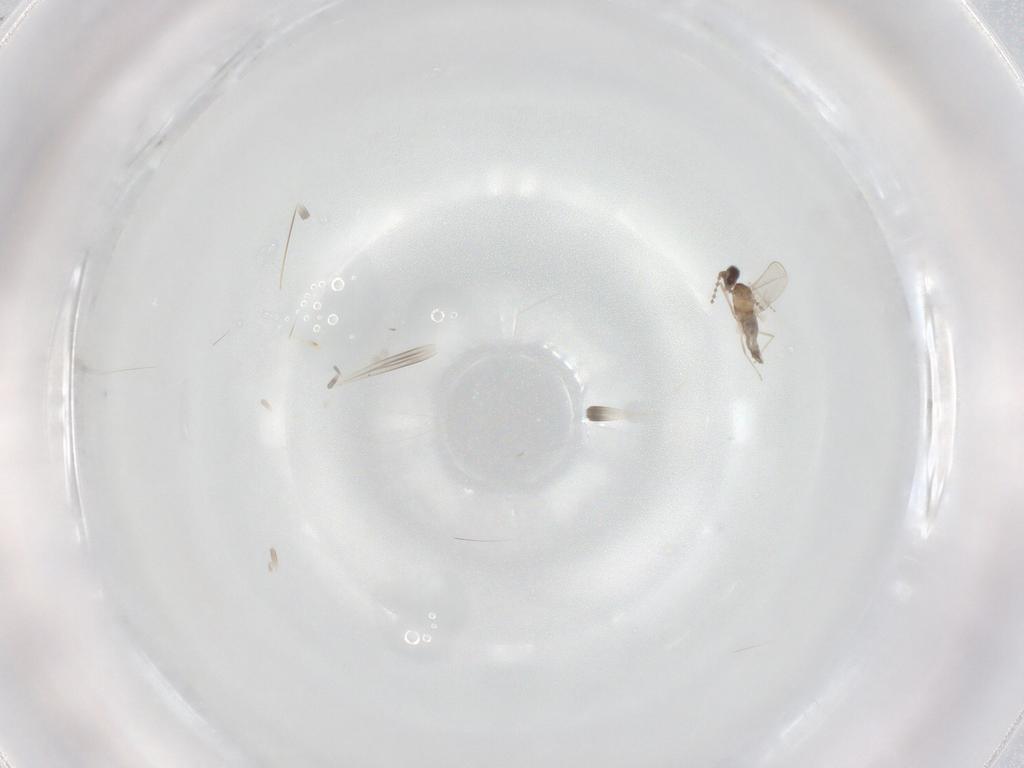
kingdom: Animalia
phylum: Arthropoda
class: Insecta
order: Diptera
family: Cecidomyiidae
